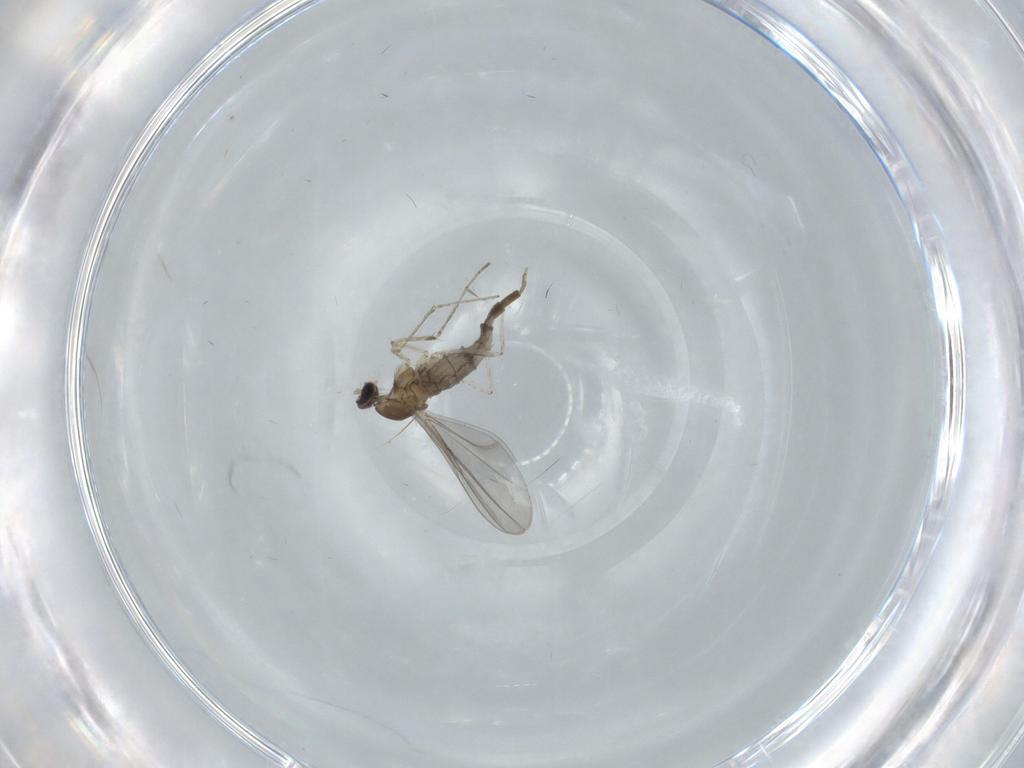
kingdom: Animalia
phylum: Arthropoda
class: Insecta
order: Diptera
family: Cecidomyiidae
